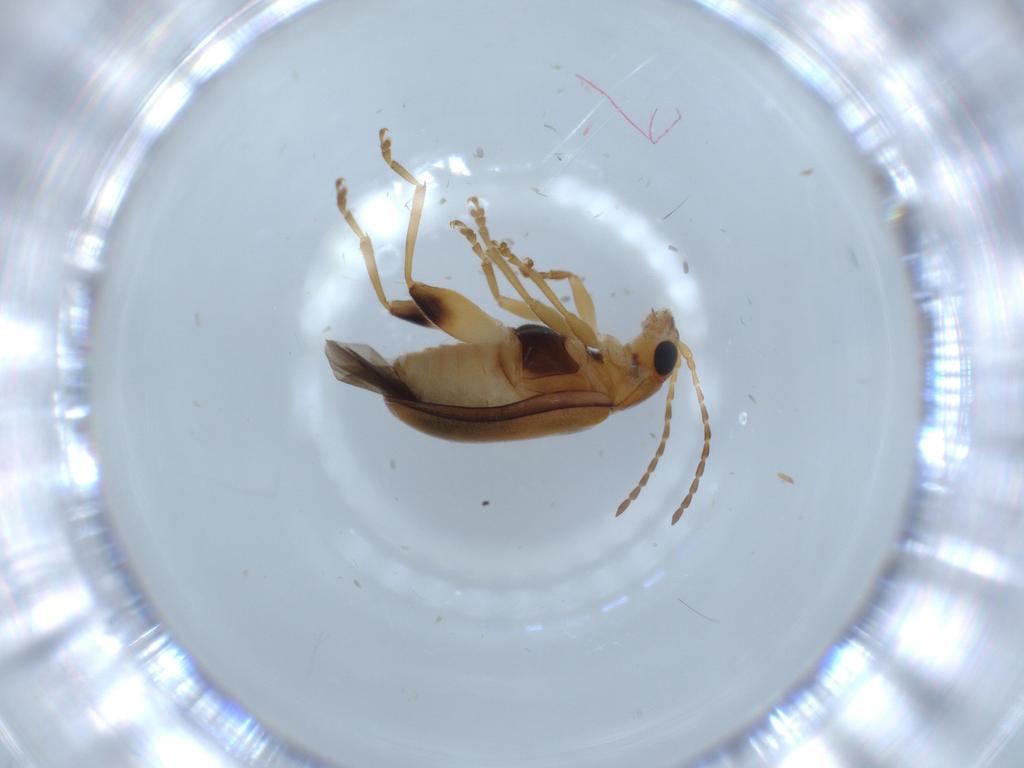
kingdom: Animalia
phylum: Arthropoda
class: Insecta
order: Coleoptera
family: Chrysomelidae
